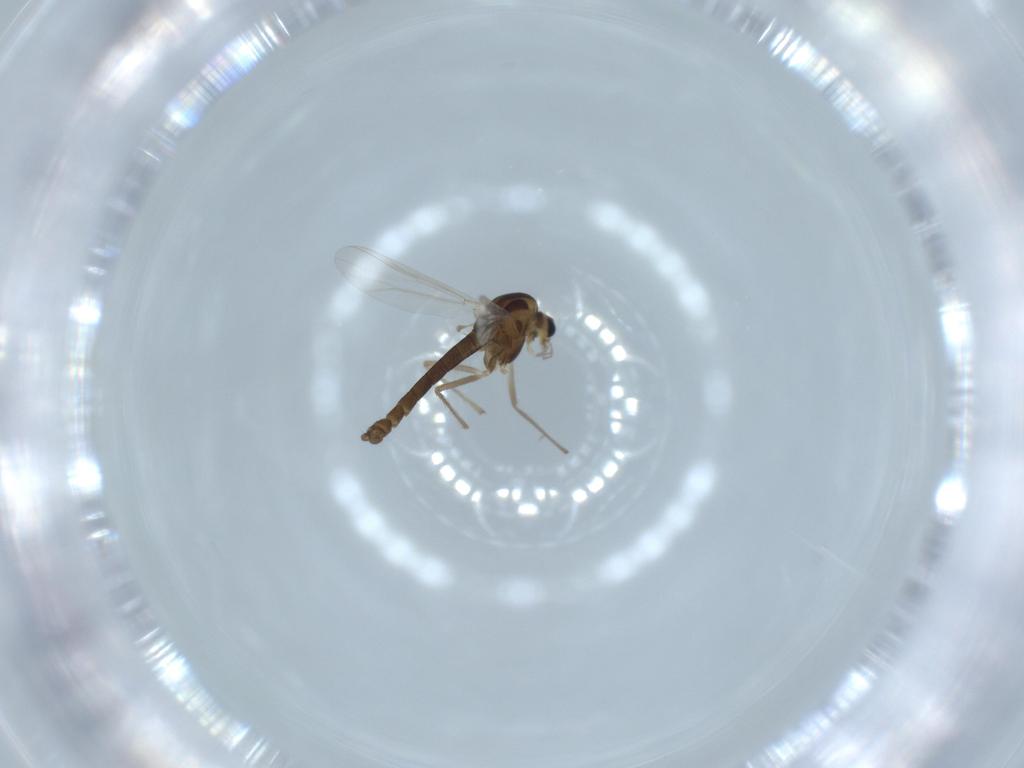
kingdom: Animalia
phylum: Arthropoda
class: Insecta
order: Diptera
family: Chironomidae
